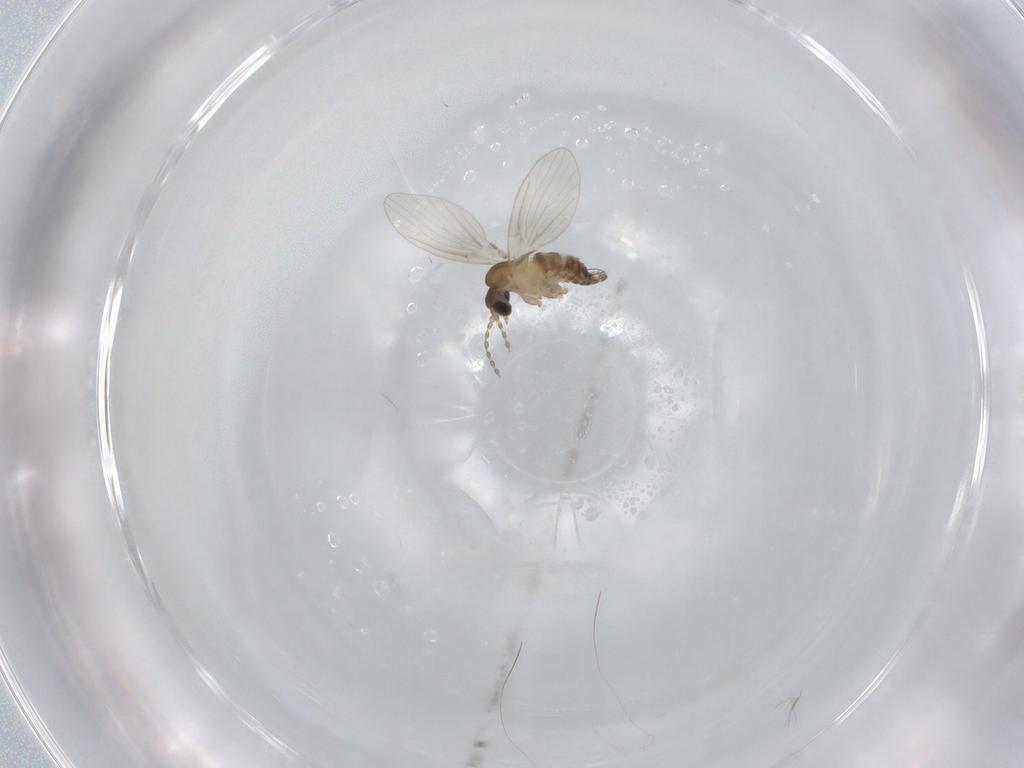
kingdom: Animalia
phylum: Arthropoda
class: Insecta
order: Diptera
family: Psychodidae
